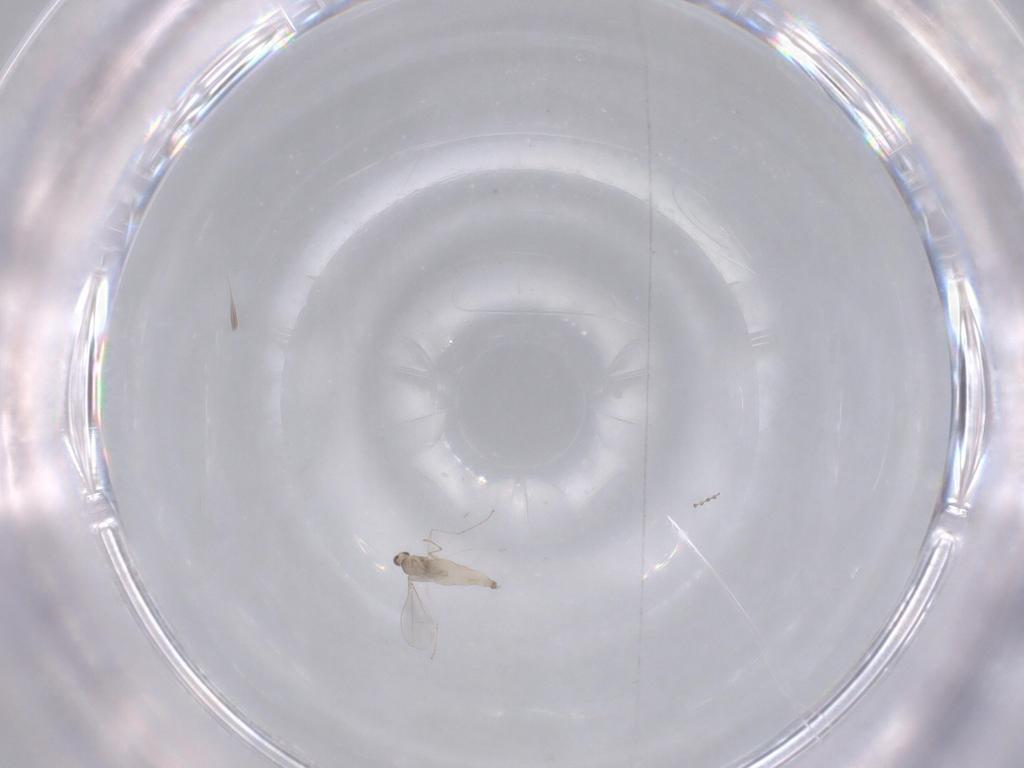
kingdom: Animalia
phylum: Arthropoda
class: Insecta
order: Diptera
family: Cecidomyiidae
